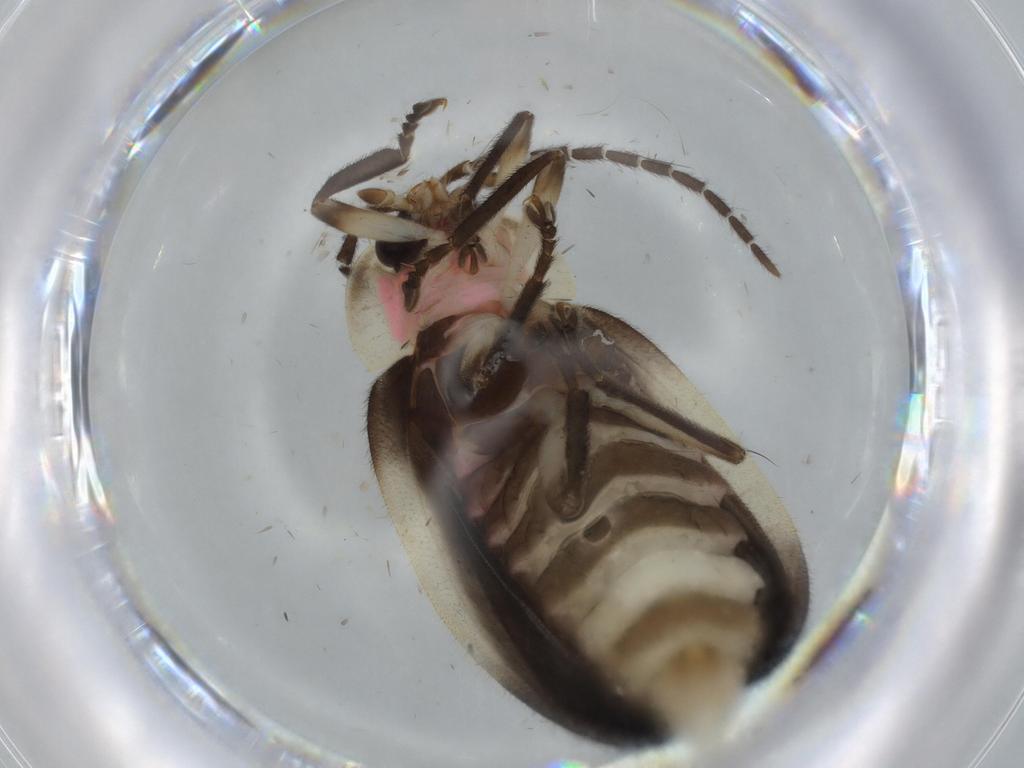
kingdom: Animalia
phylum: Arthropoda
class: Insecta
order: Coleoptera
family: Lampyridae
